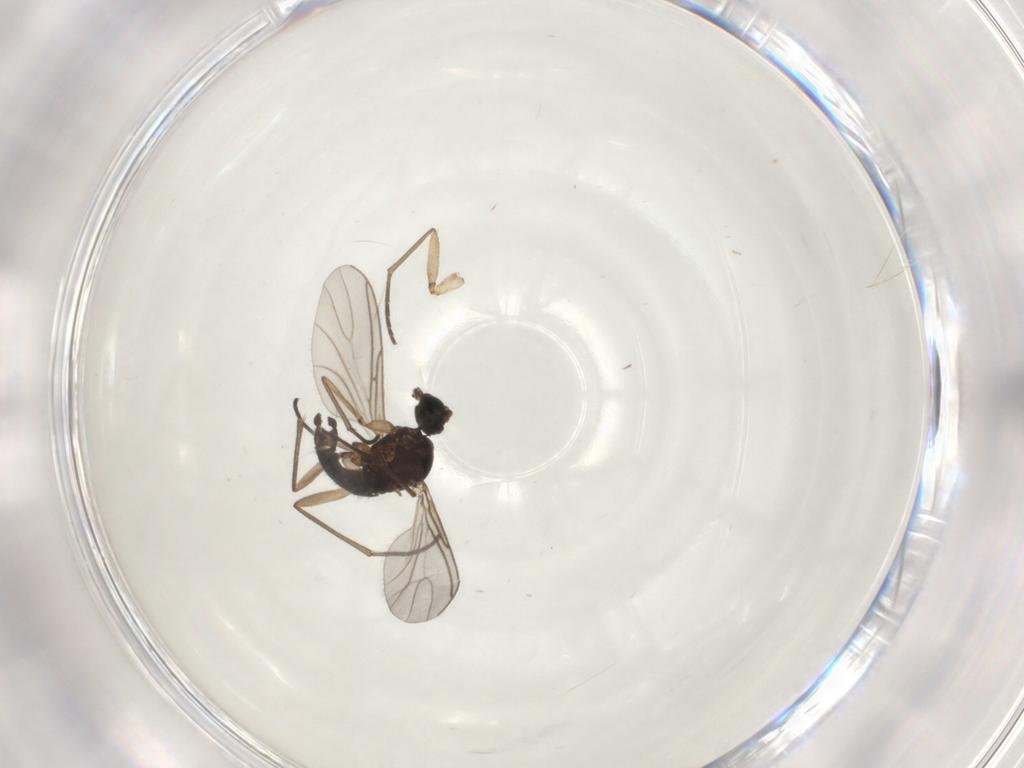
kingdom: Animalia
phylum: Arthropoda
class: Insecta
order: Diptera
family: Sciaridae
